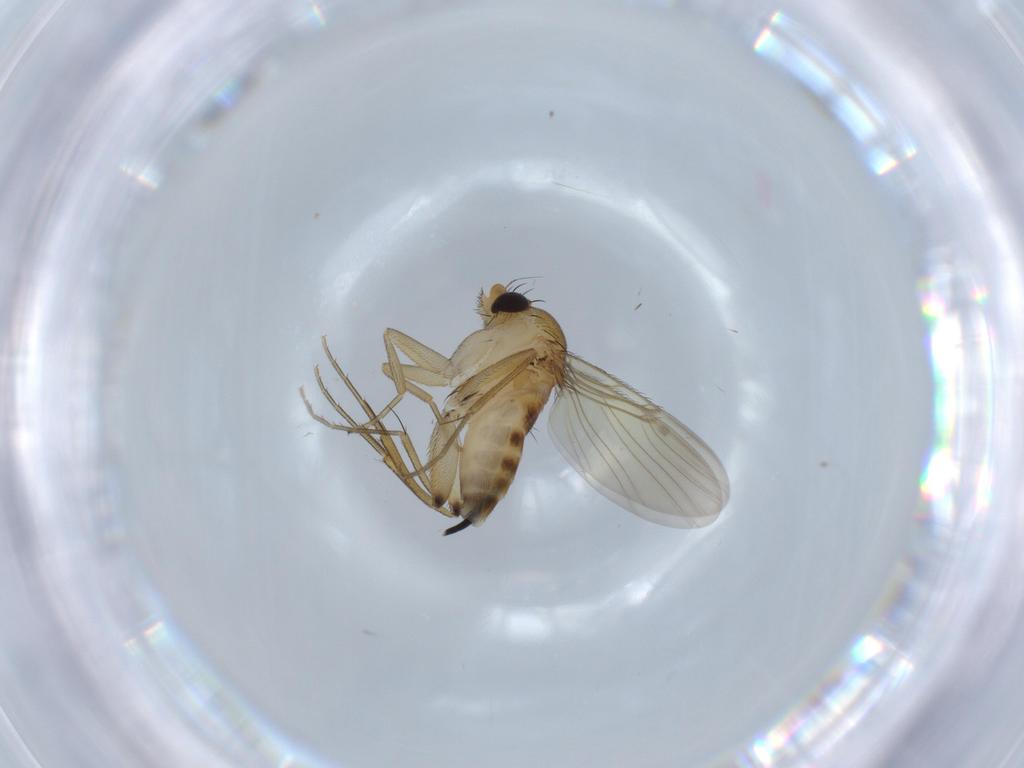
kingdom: Animalia
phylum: Arthropoda
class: Insecta
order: Diptera
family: Phoridae
